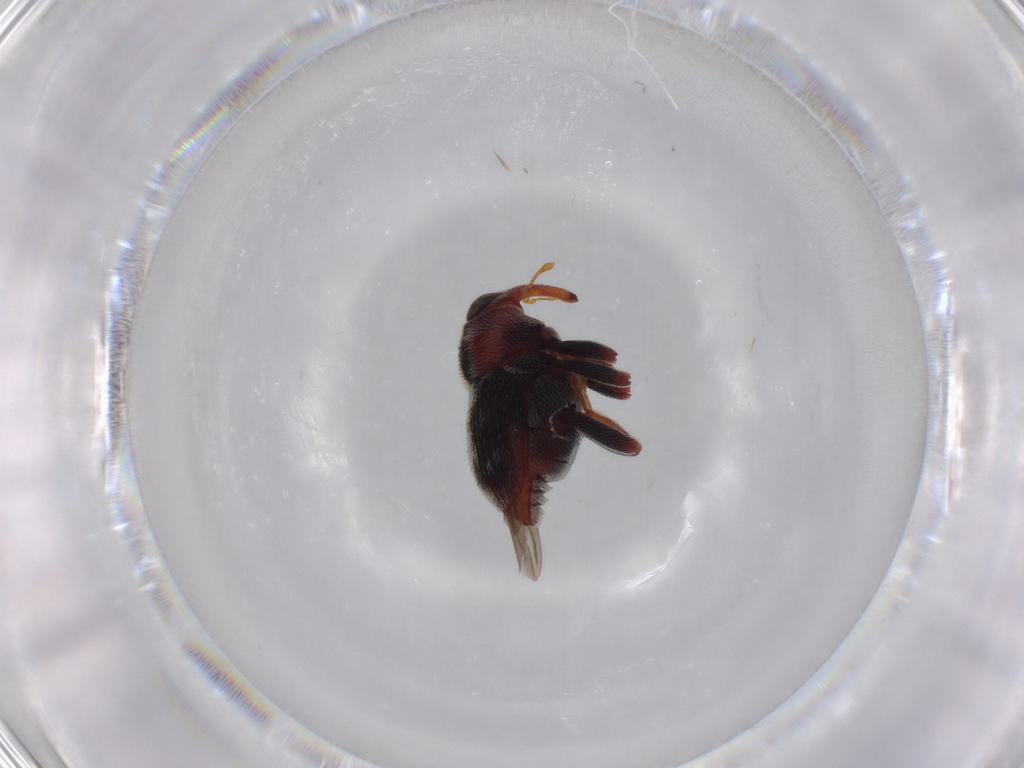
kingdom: Animalia
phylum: Arthropoda
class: Insecta
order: Coleoptera
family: Curculionidae
